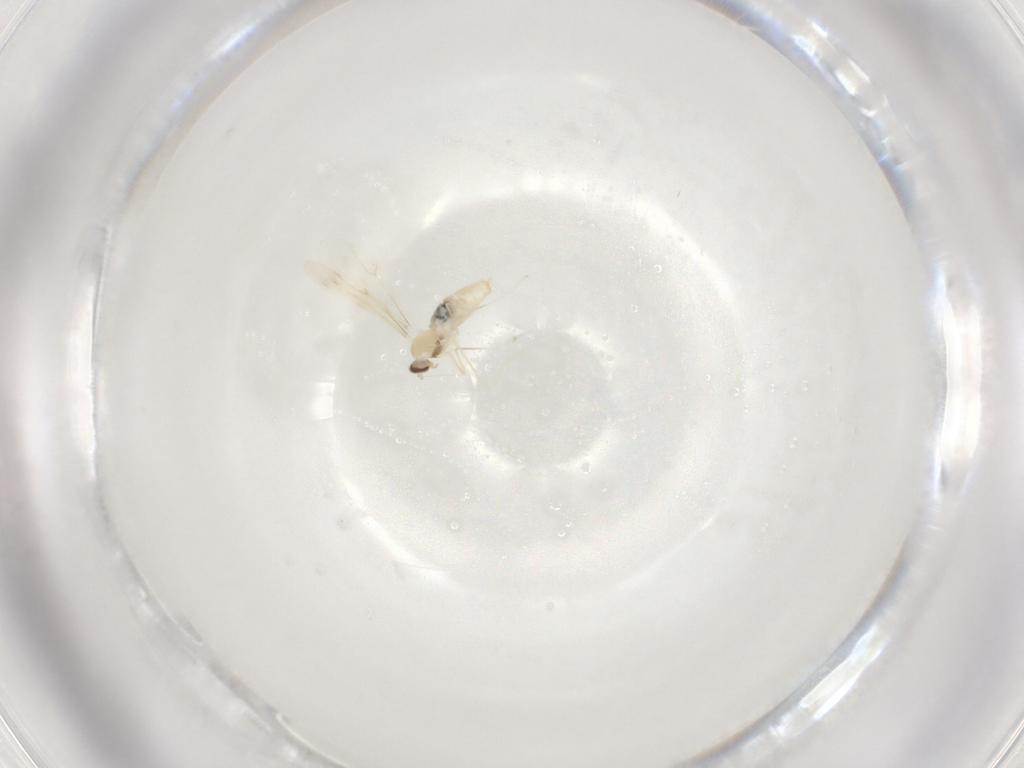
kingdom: Animalia
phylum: Arthropoda
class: Insecta
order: Diptera
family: Cecidomyiidae
